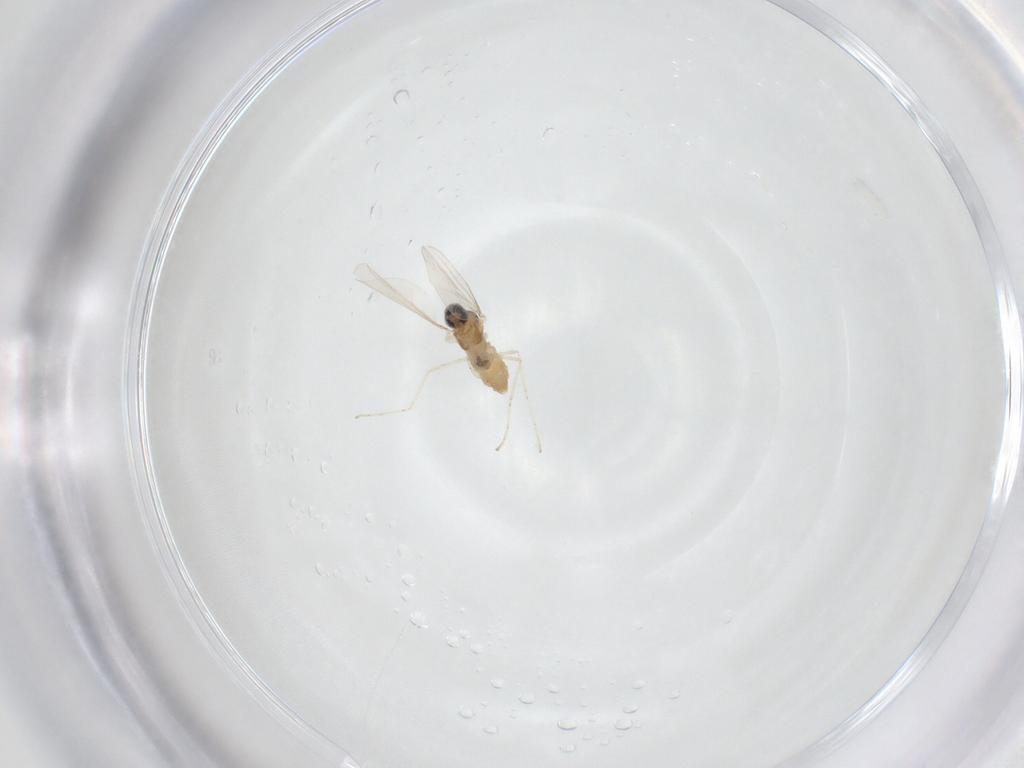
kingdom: Animalia
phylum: Arthropoda
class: Insecta
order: Diptera
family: Cecidomyiidae
